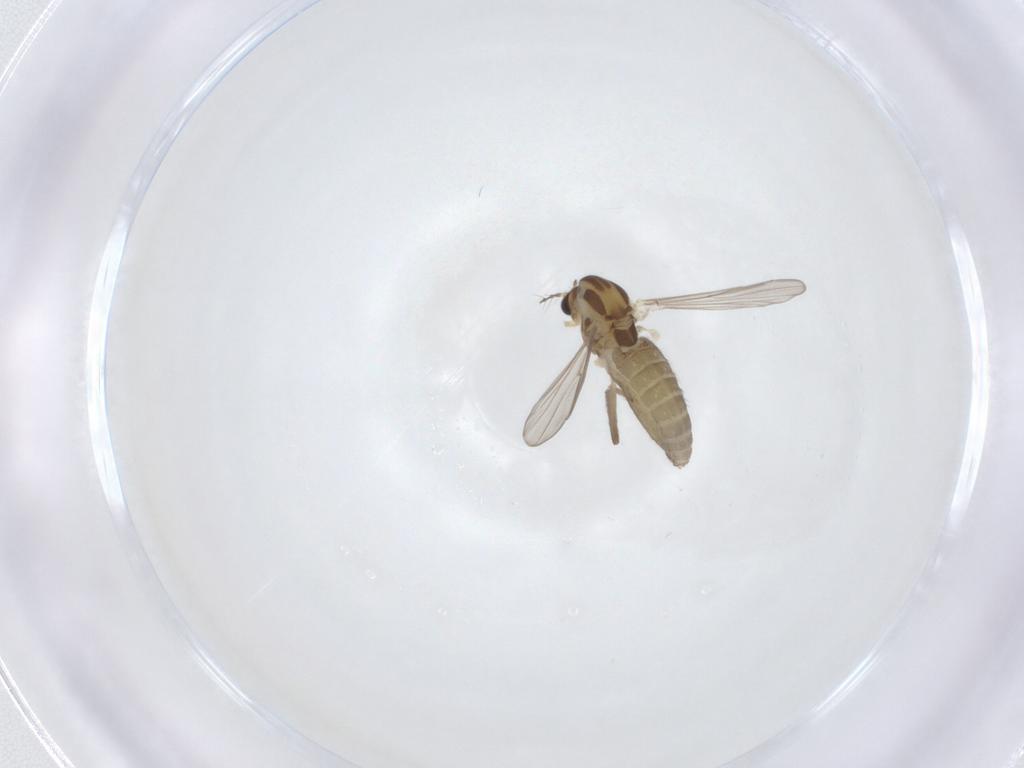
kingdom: Animalia
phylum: Arthropoda
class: Insecta
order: Diptera
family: Chironomidae
